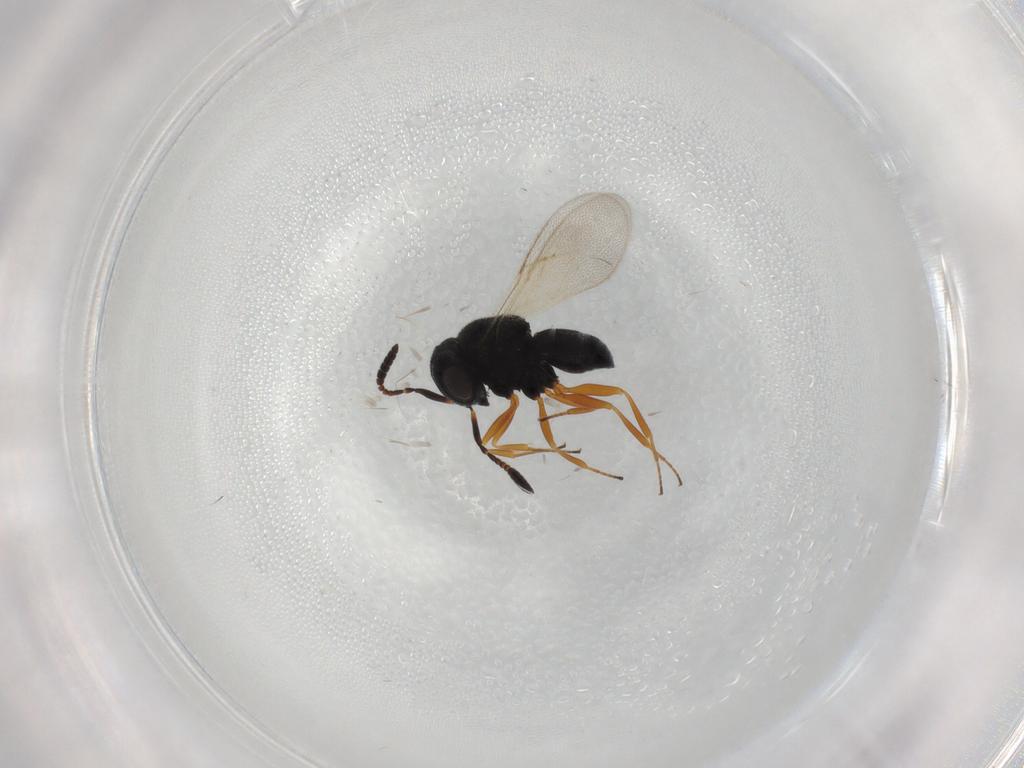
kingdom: Animalia
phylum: Arthropoda
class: Insecta
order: Hymenoptera
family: Scelionidae
